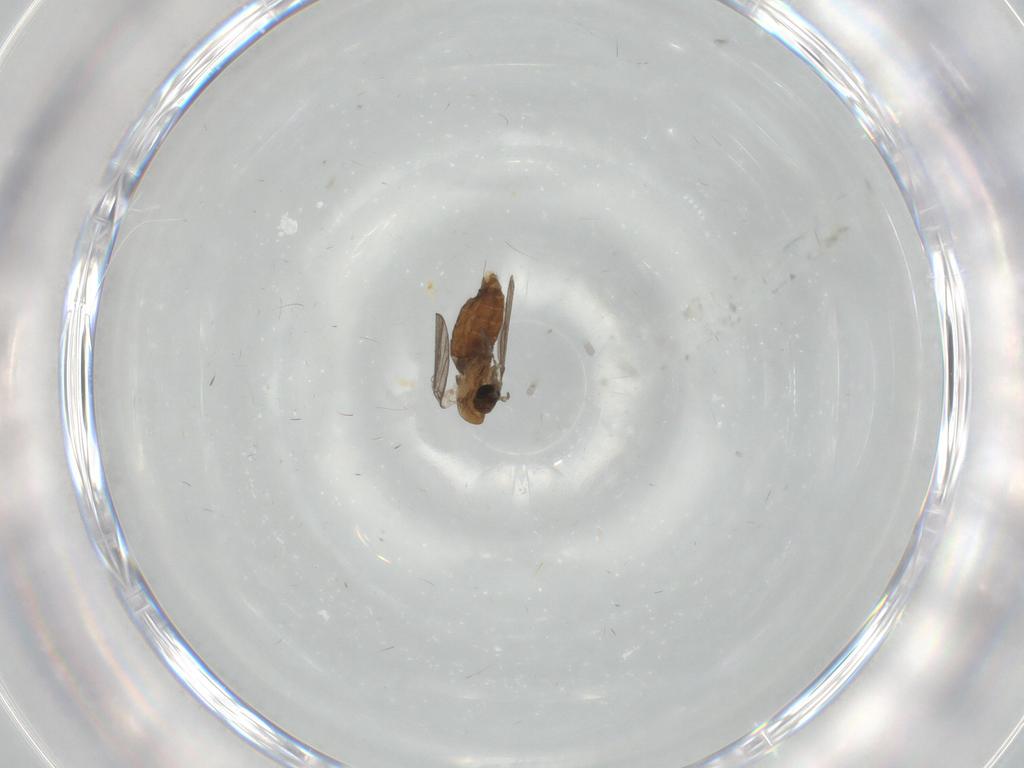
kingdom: Animalia
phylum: Arthropoda
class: Insecta
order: Diptera
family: Cecidomyiidae
